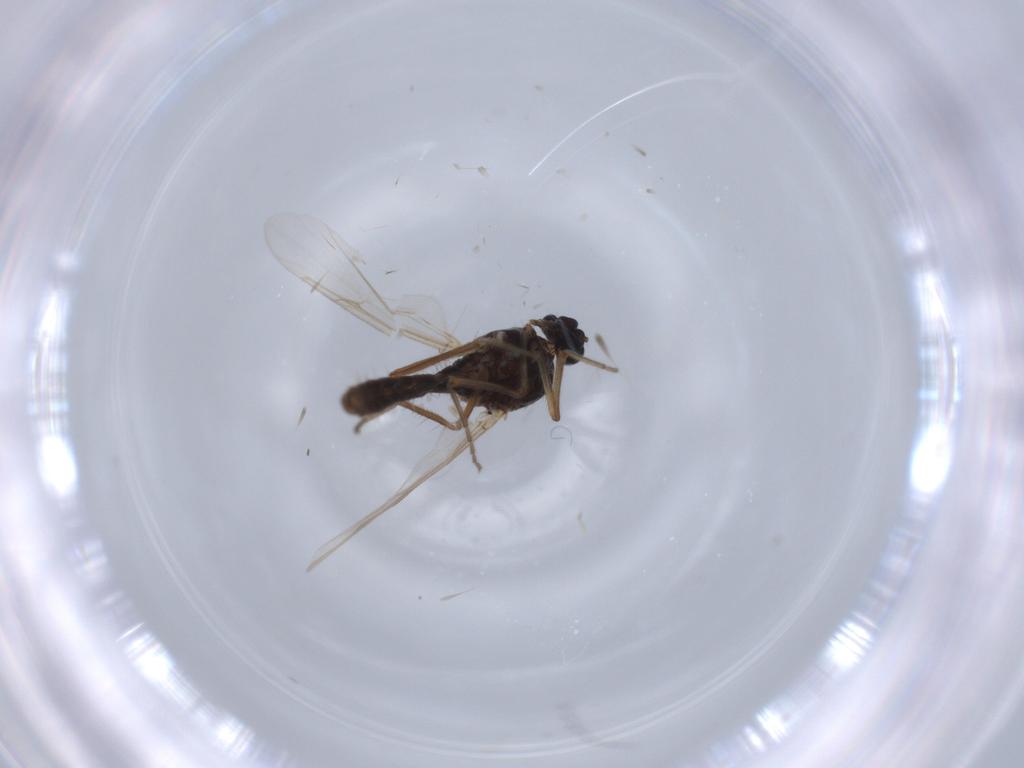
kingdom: Animalia
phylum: Arthropoda
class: Insecta
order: Diptera
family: Ceratopogonidae
